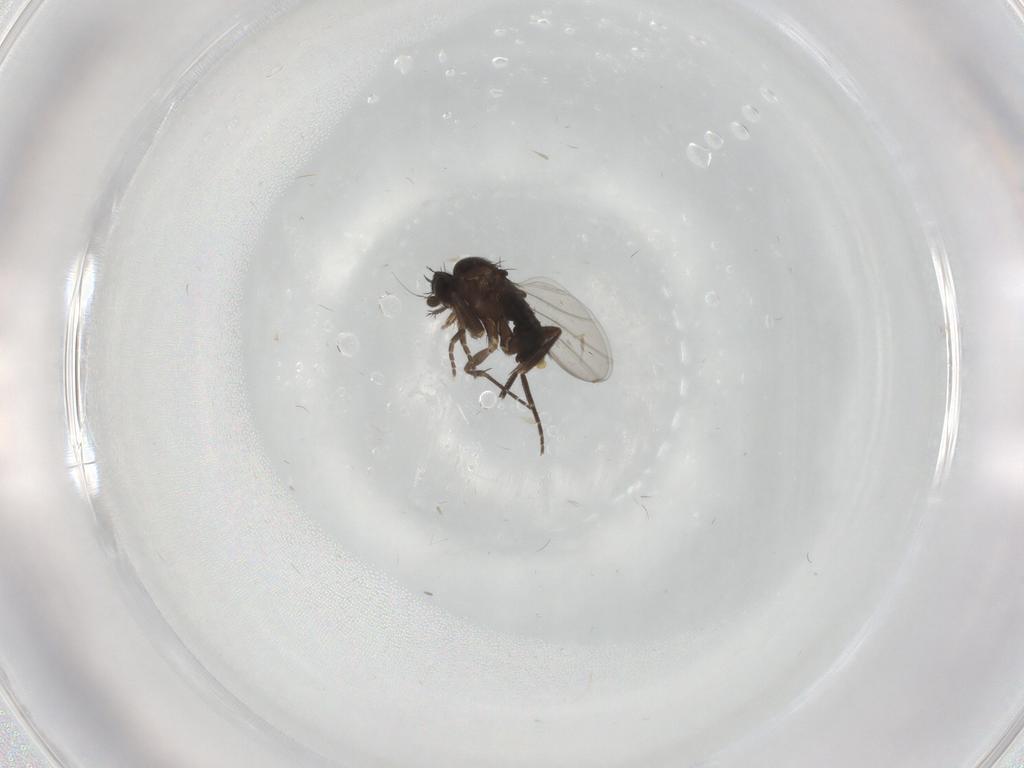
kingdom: Animalia
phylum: Arthropoda
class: Insecta
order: Diptera
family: Phoridae
